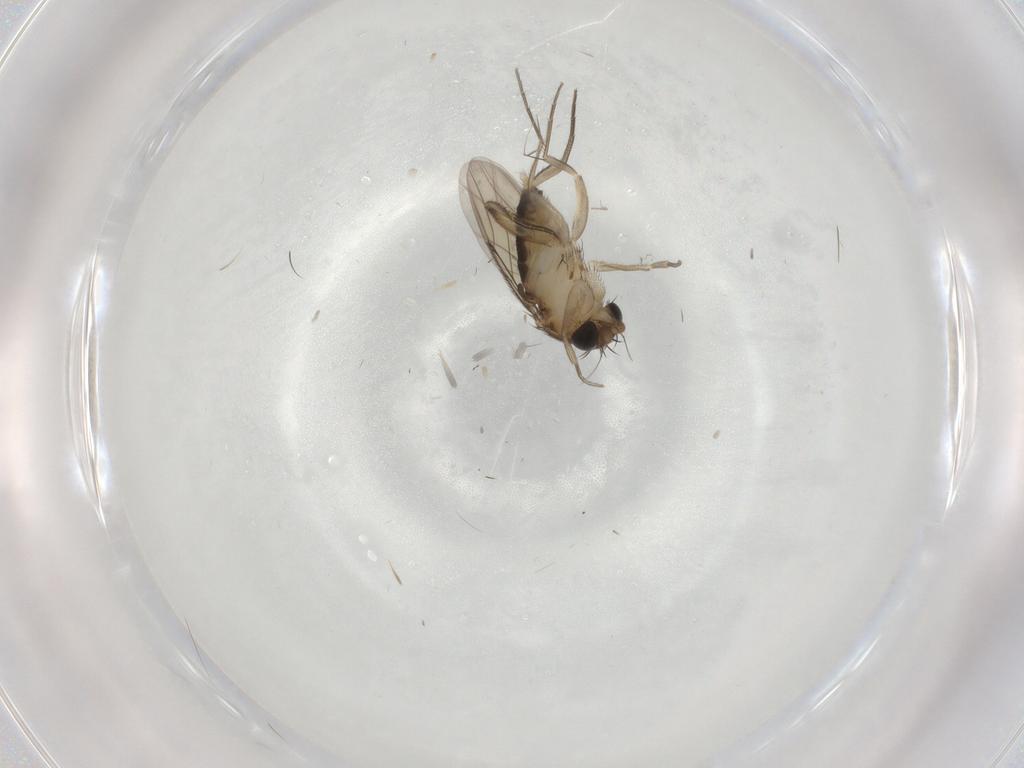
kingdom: Animalia
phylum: Arthropoda
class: Insecta
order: Diptera
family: Phoridae
